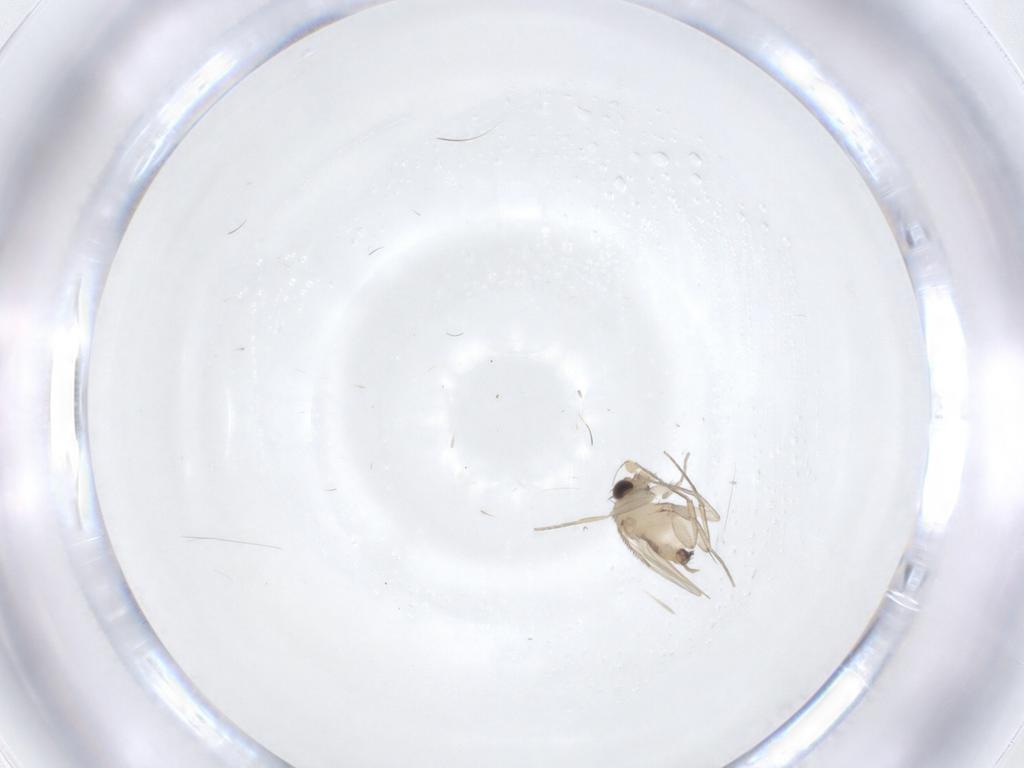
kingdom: Animalia
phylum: Arthropoda
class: Insecta
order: Diptera
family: Phoridae
